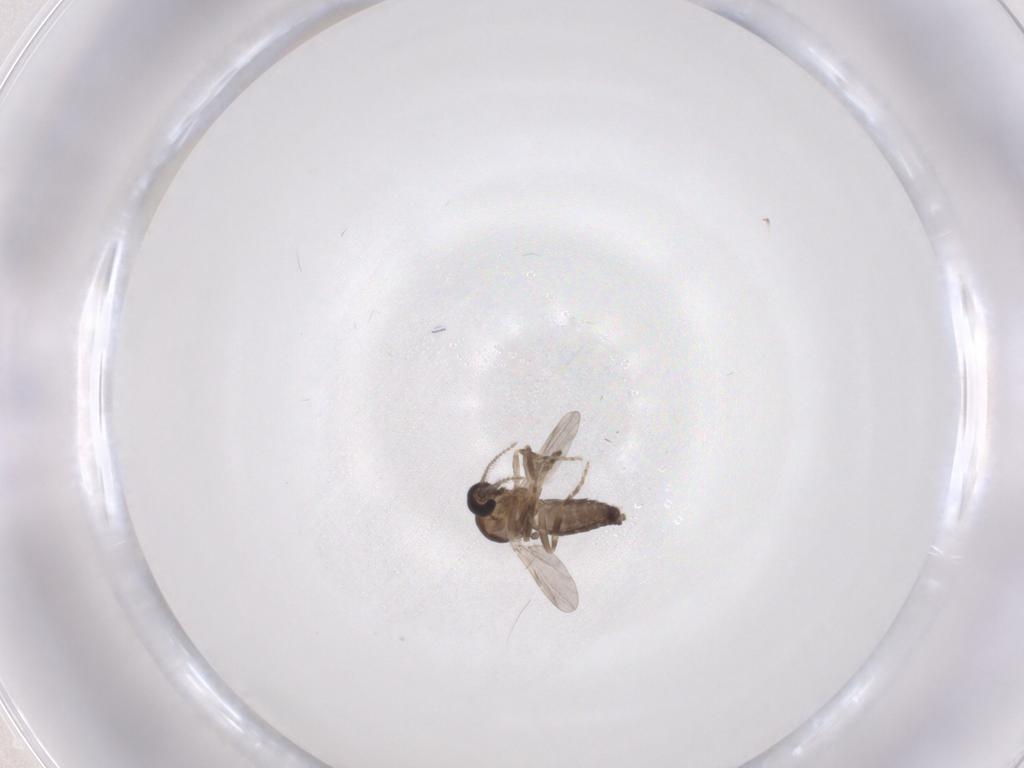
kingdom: Animalia
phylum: Arthropoda
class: Insecta
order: Diptera
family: Ceratopogonidae
